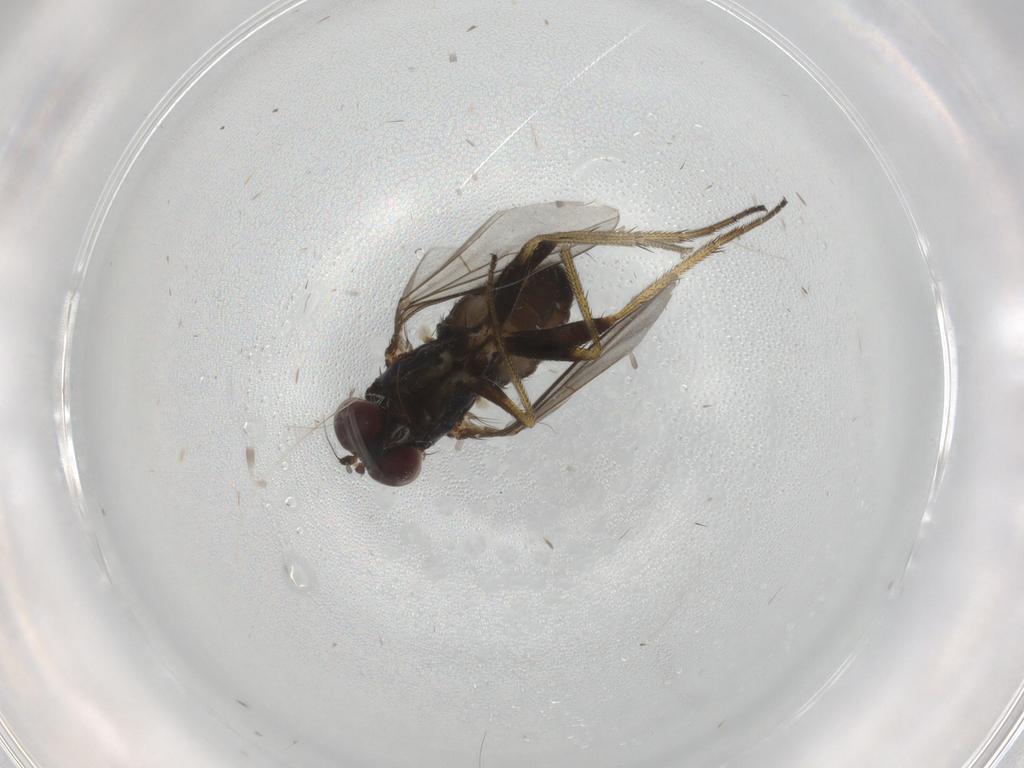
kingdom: Animalia
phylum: Arthropoda
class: Insecta
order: Diptera
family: Dolichopodidae
